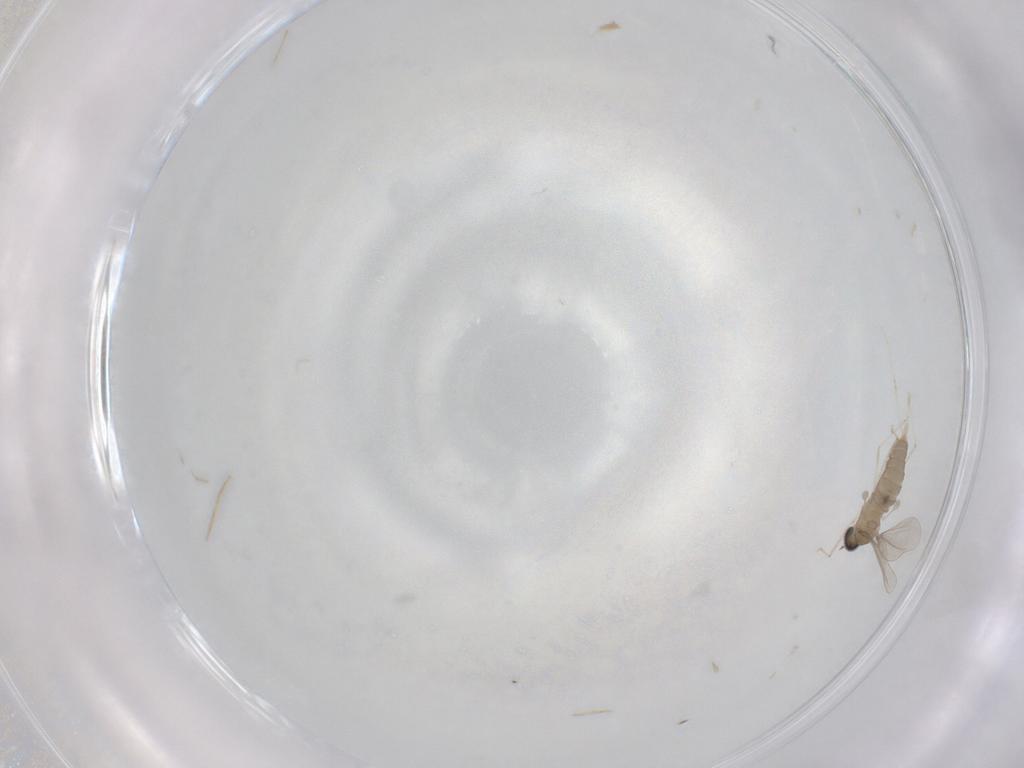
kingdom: Animalia
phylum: Arthropoda
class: Insecta
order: Diptera
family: Cecidomyiidae
